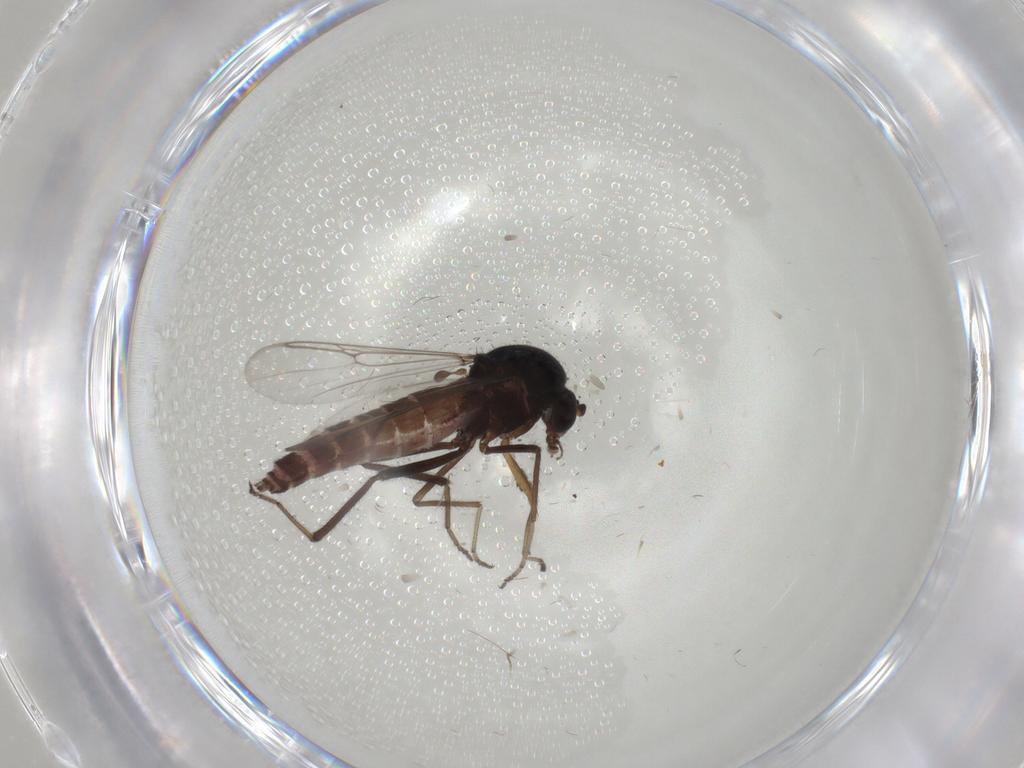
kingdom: Animalia
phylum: Arthropoda
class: Insecta
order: Diptera
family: Ceratopogonidae
